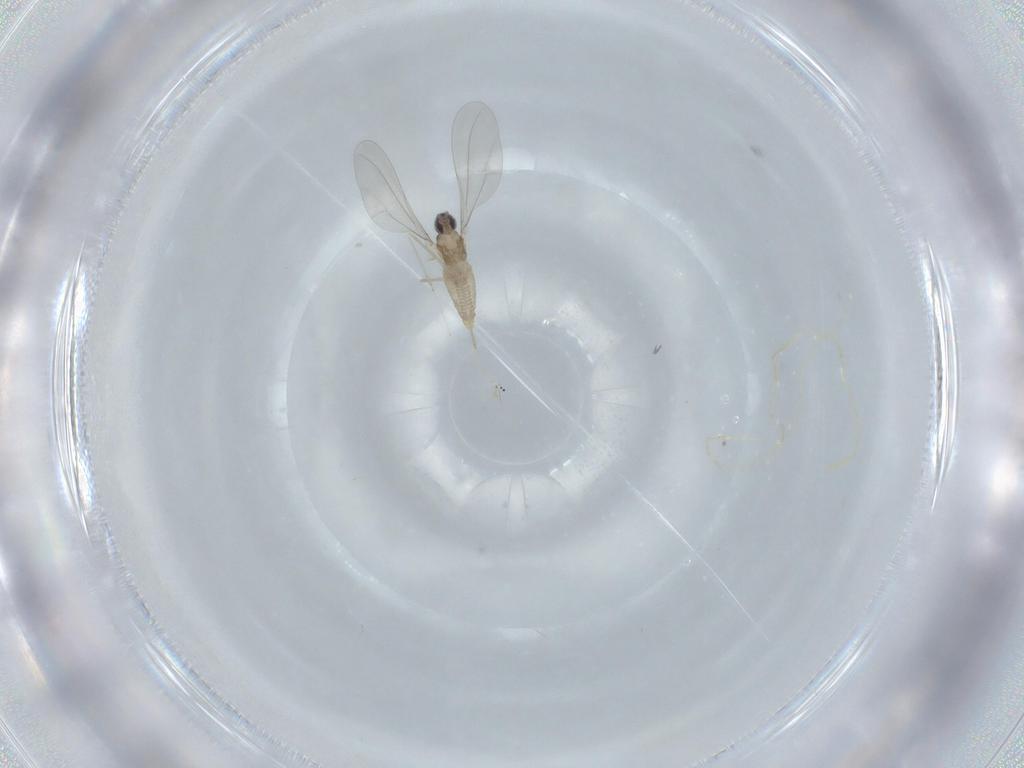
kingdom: Animalia
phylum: Arthropoda
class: Insecta
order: Diptera
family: Cecidomyiidae
